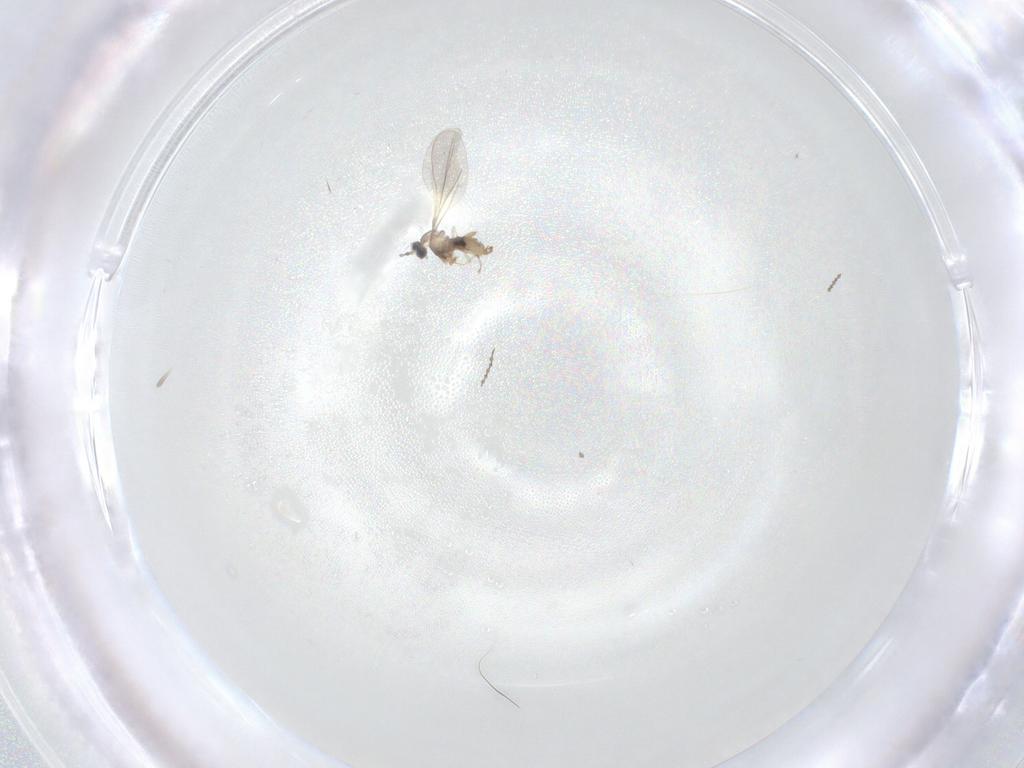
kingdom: Animalia
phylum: Arthropoda
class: Insecta
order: Diptera
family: Cecidomyiidae
